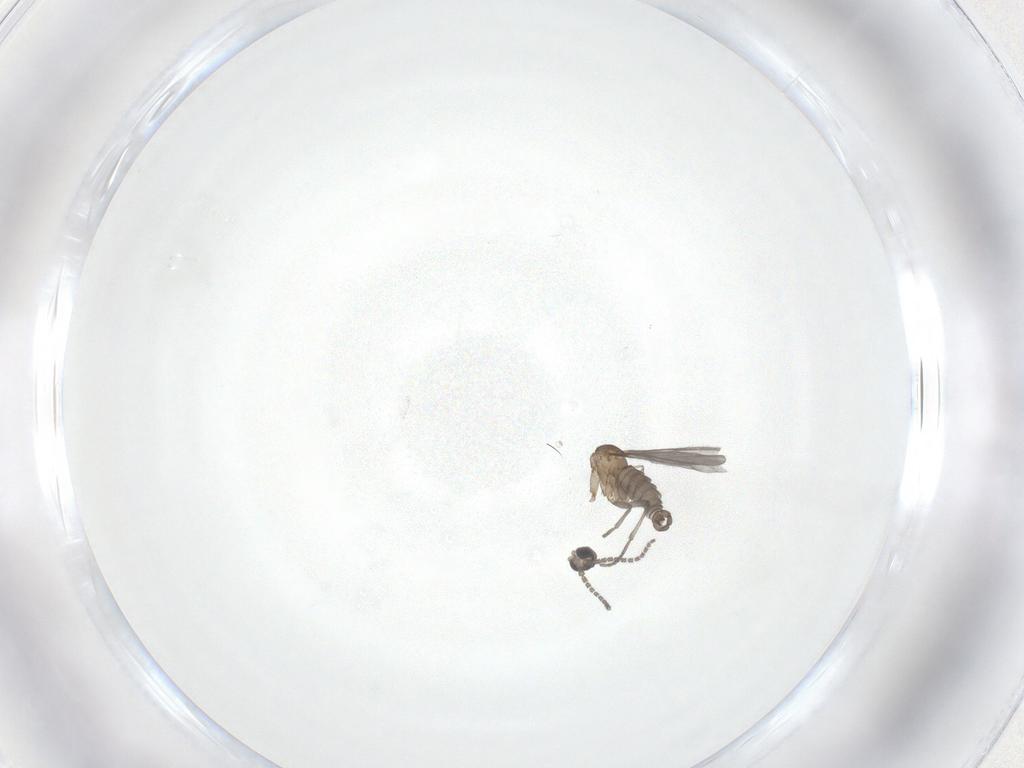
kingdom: Animalia
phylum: Arthropoda
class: Insecta
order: Diptera
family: Sciaridae
